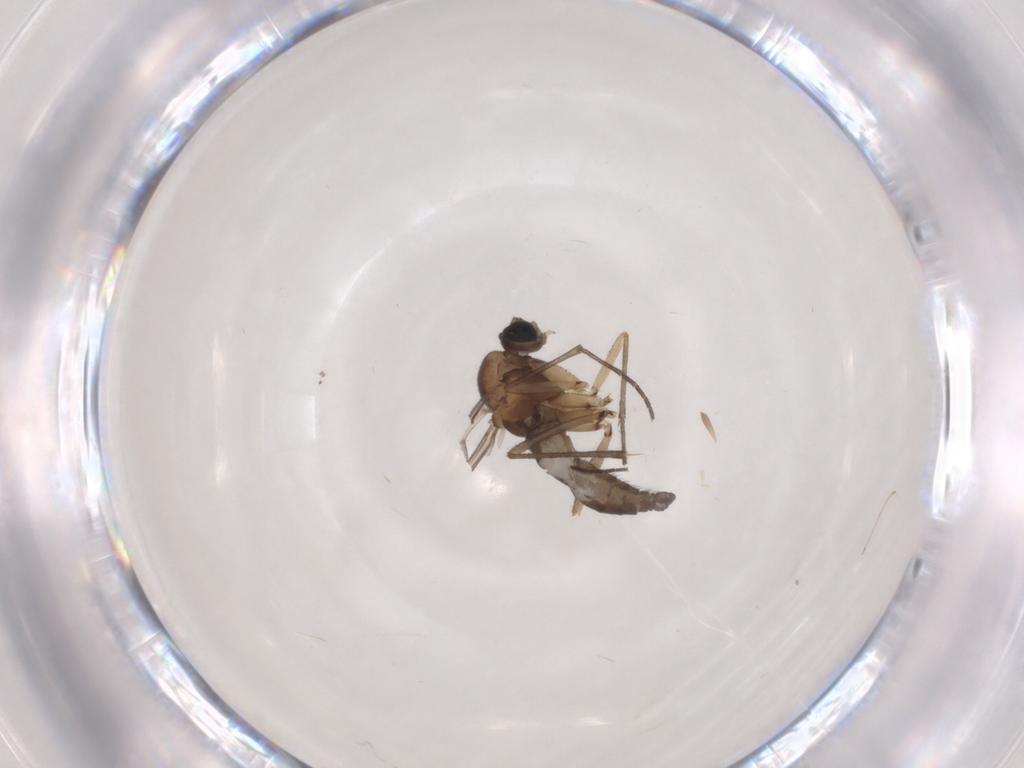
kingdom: Animalia
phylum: Arthropoda
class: Insecta
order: Diptera
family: Sciaridae
